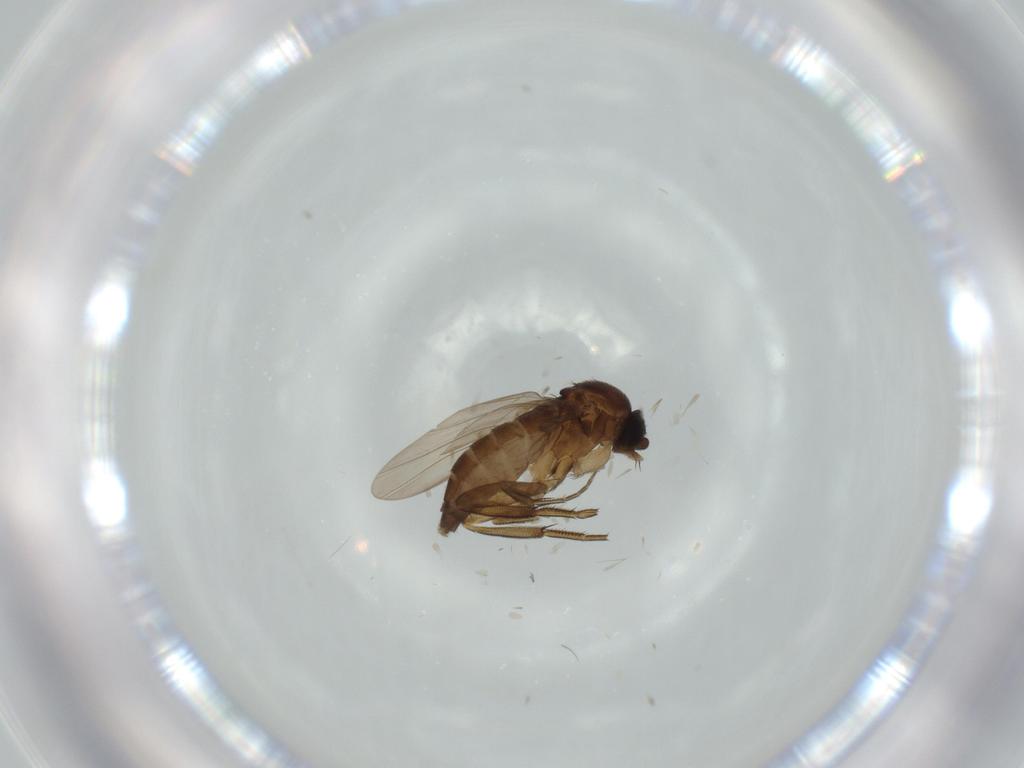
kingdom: Animalia
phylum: Arthropoda
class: Insecta
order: Diptera
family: Phoridae
